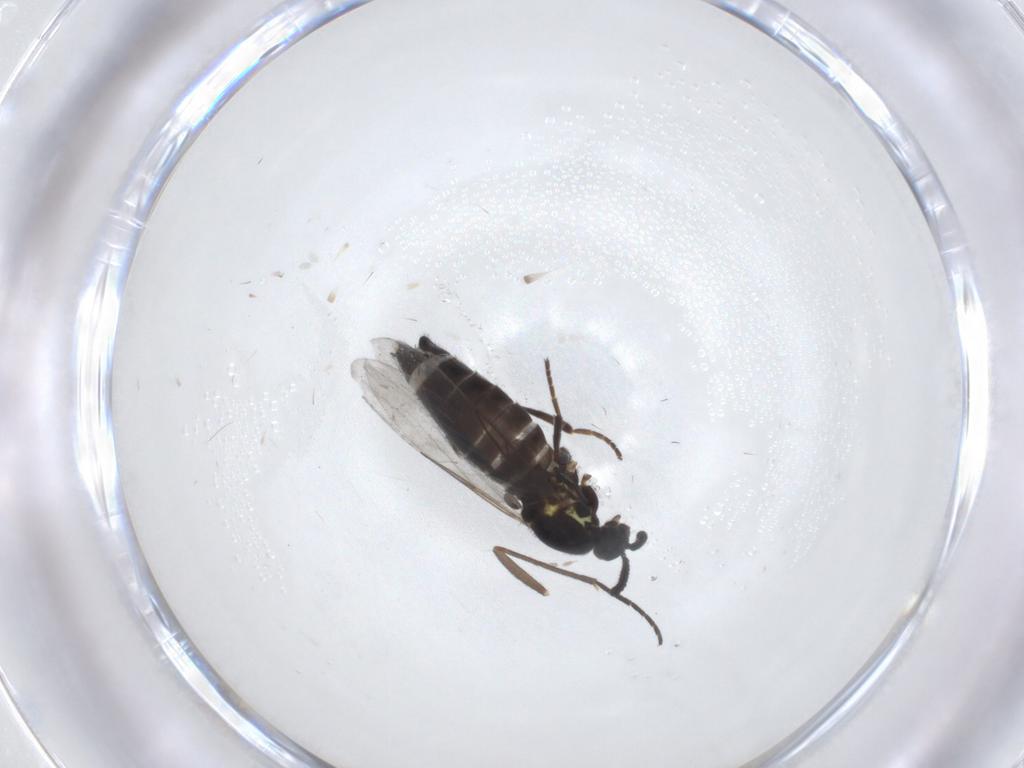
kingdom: Animalia
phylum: Arthropoda
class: Insecta
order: Diptera
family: Scatopsidae
